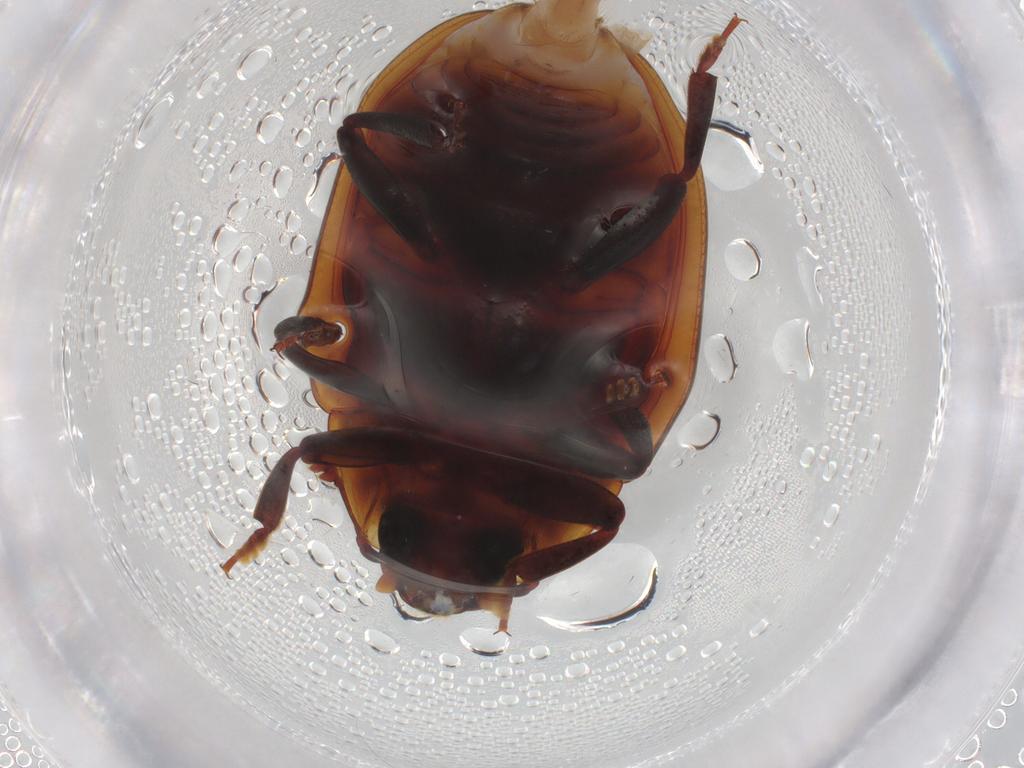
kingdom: Animalia
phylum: Arthropoda
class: Insecta
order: Coleoptera
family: Zopheridae
